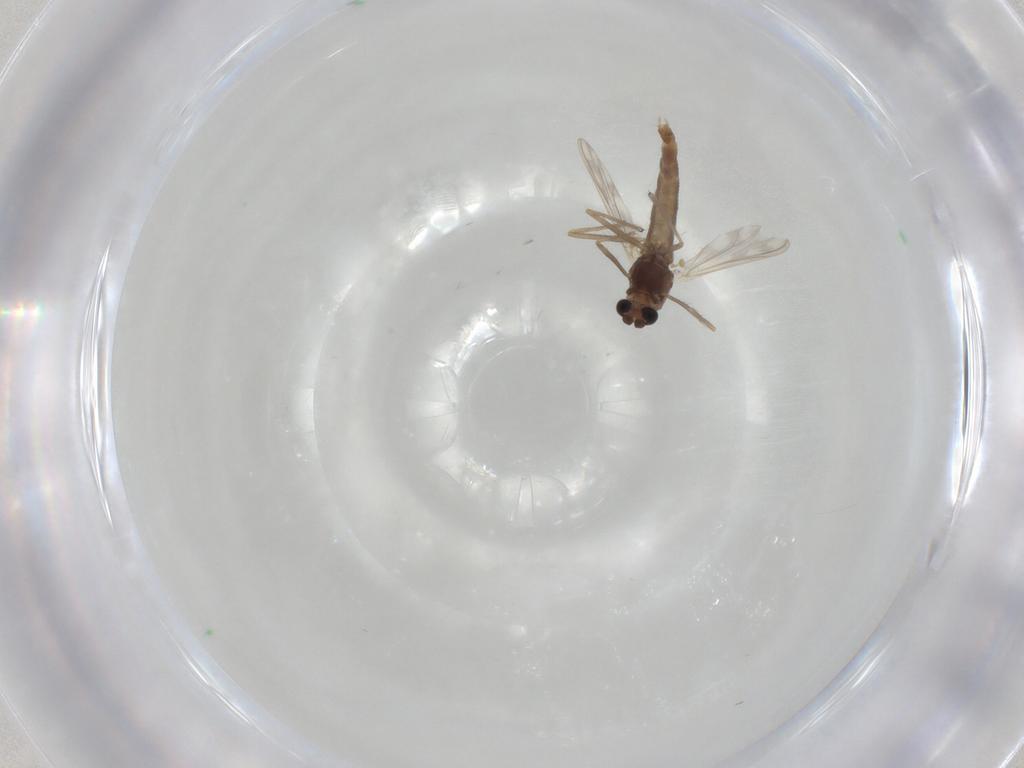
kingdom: Animalia
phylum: Arthropoda
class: Insecta
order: Diptera
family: Chironomidae
